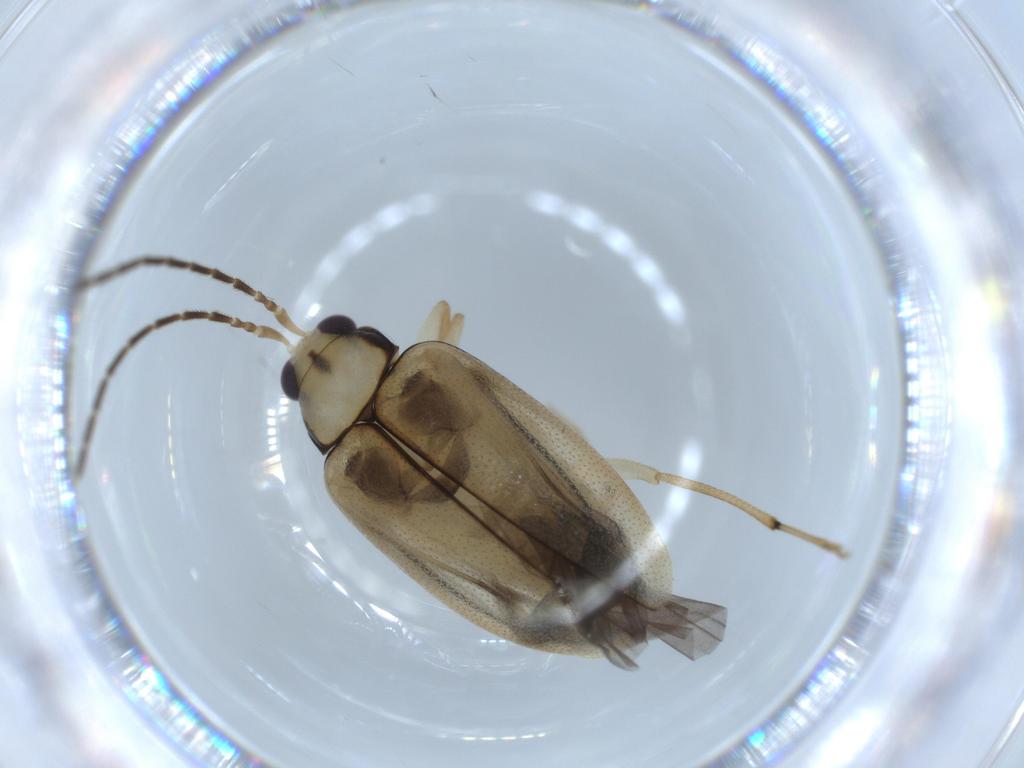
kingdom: Animalia
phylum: Arthropoda
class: Insecta
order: Coleoptera
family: Chrysomelidae
